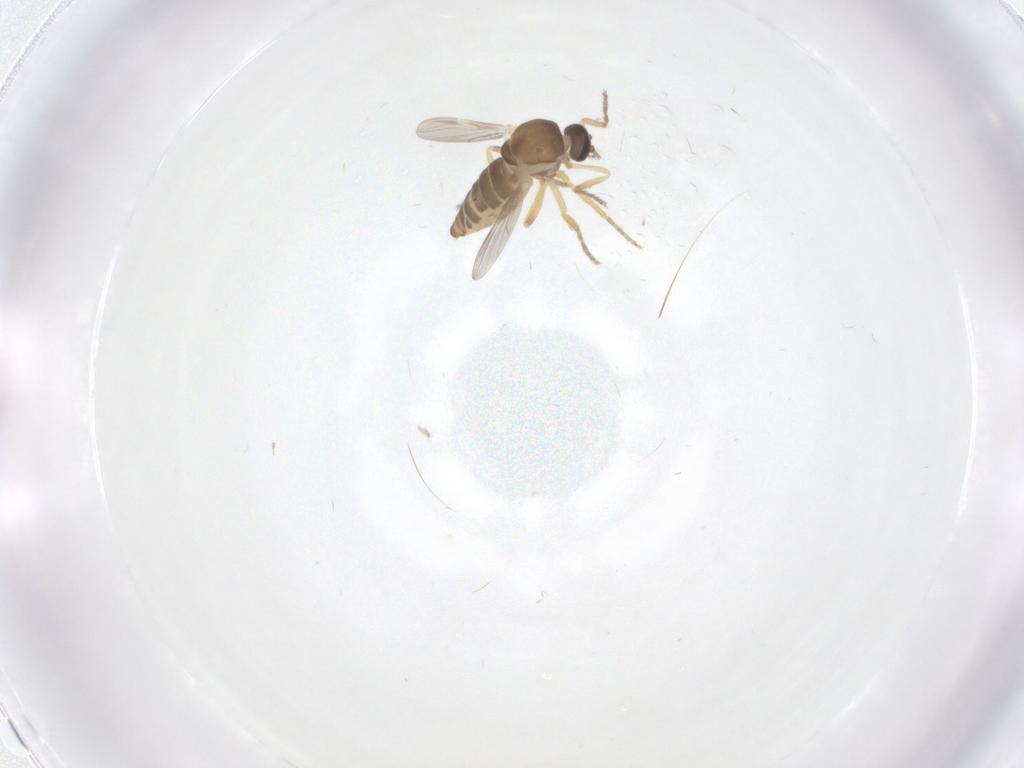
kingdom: Animalia
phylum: Arthropoda
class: Insecta
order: Diptera
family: Ceratopogonidae
